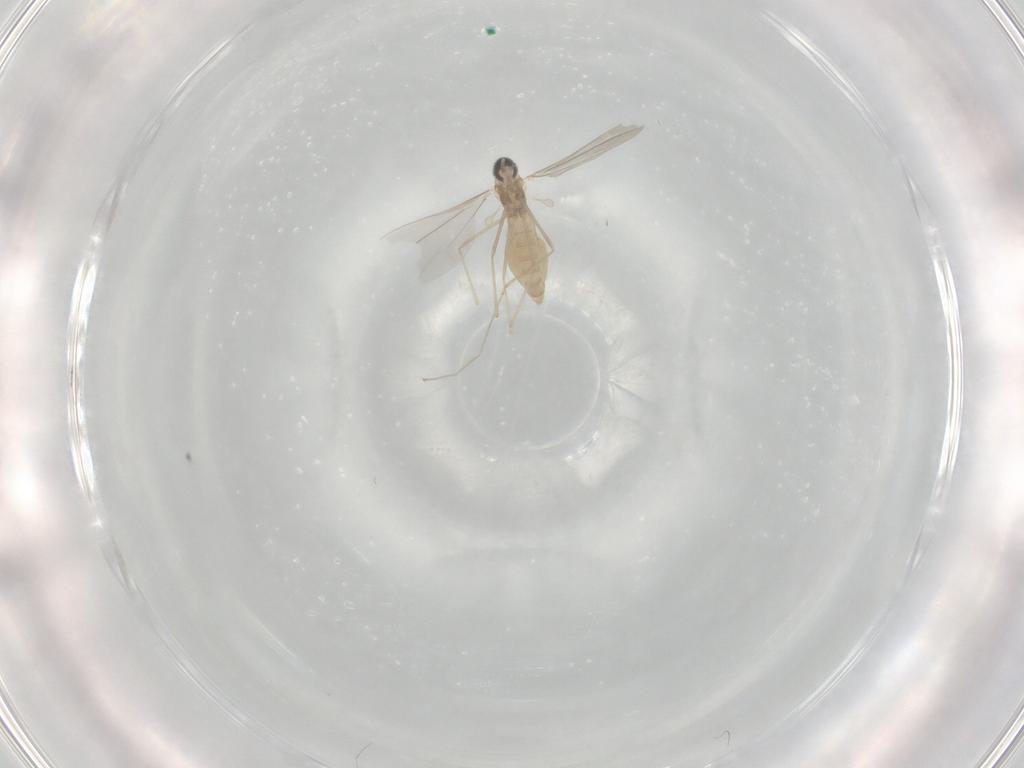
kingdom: Animalia
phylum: Arthropoda
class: Insecta
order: Diptera
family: Cecidomyiidae
